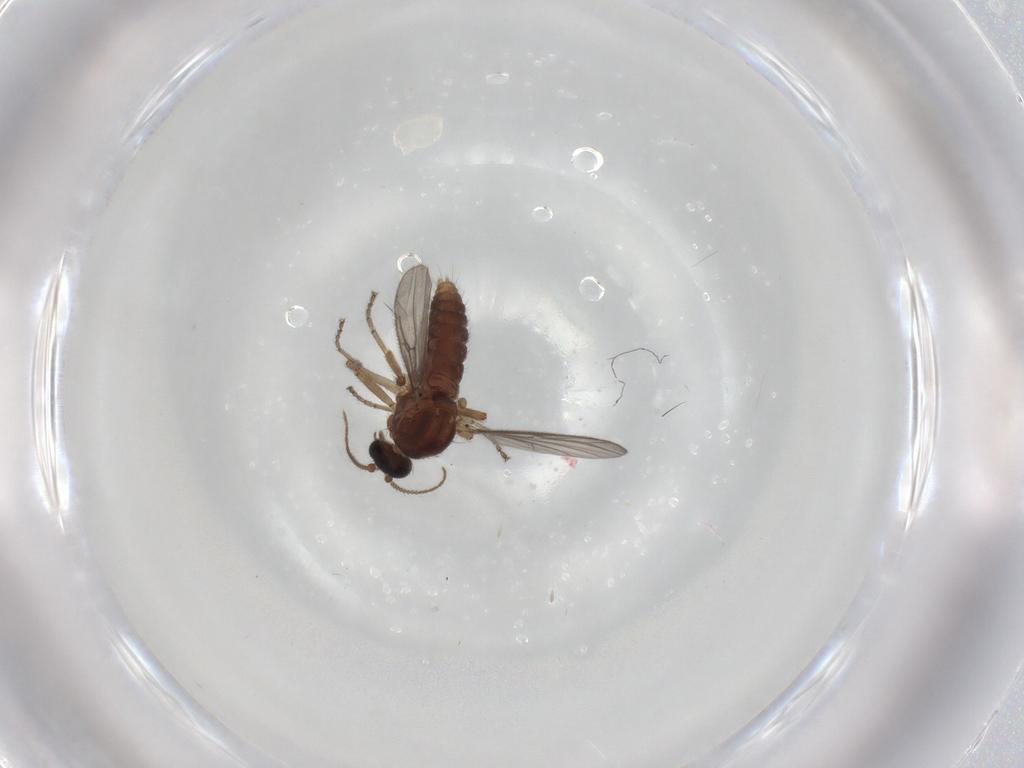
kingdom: Animalia
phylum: Arthropoda
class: Insecta
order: Diptera
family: Ceratopogonidae
